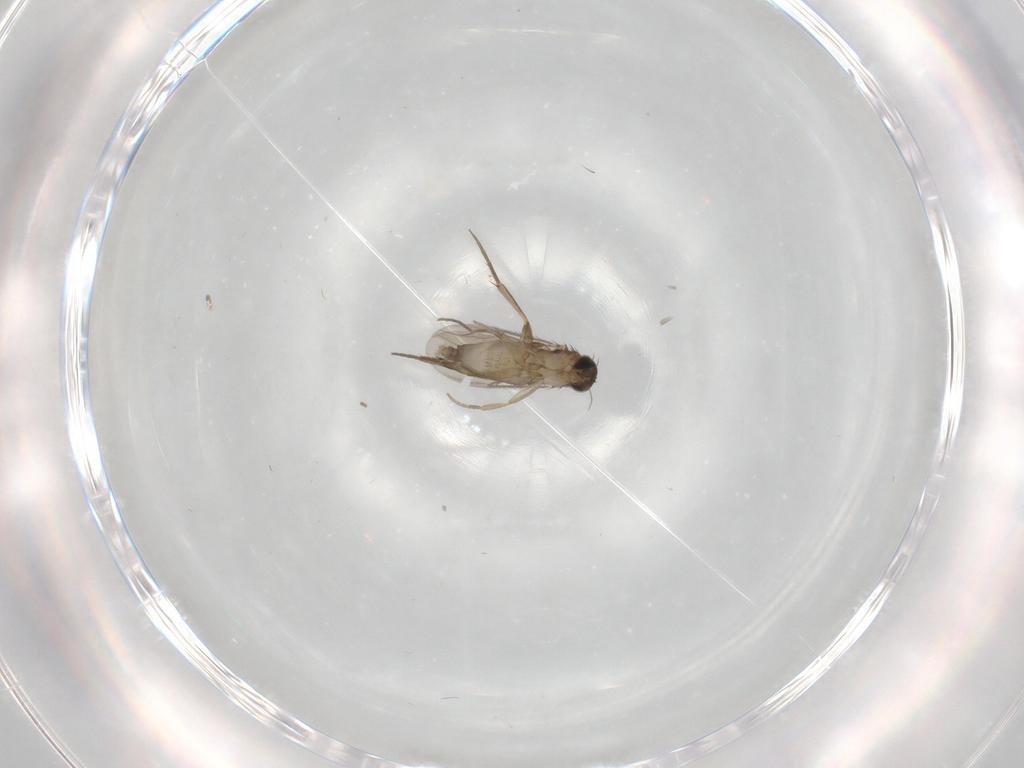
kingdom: Animalia
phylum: Arthropoda
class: Insecta
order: Diptera
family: Phoridae
